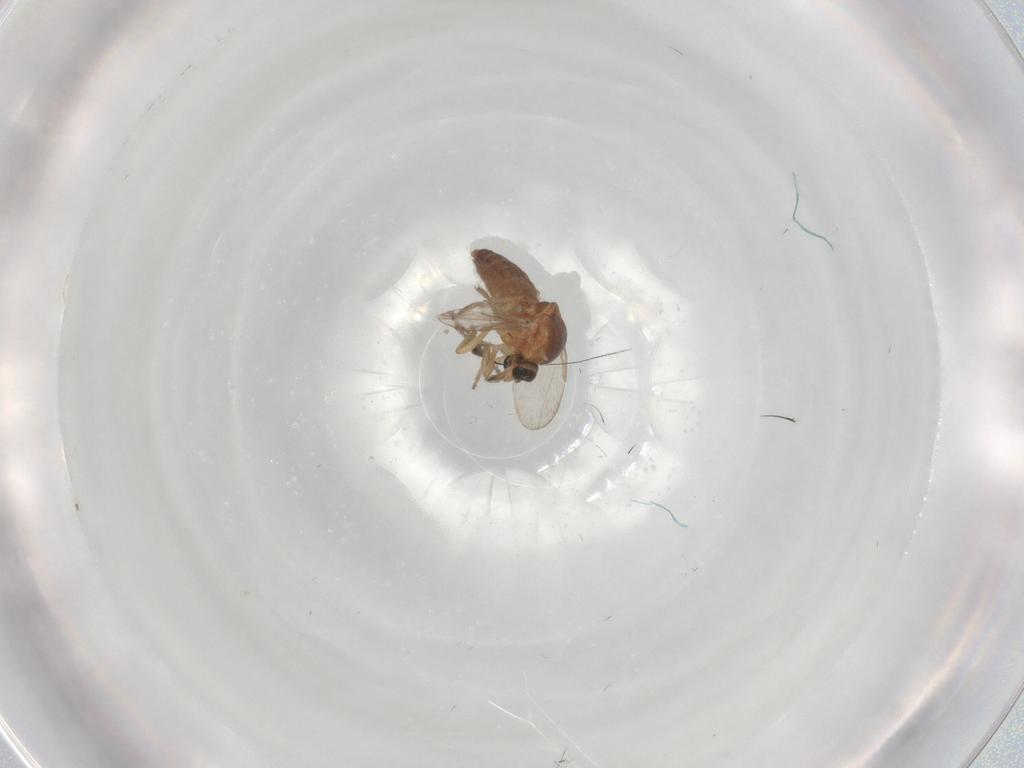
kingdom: Animalia
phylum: Arthropoda
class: Insecta
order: Diptera
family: Ceratopogonidae
